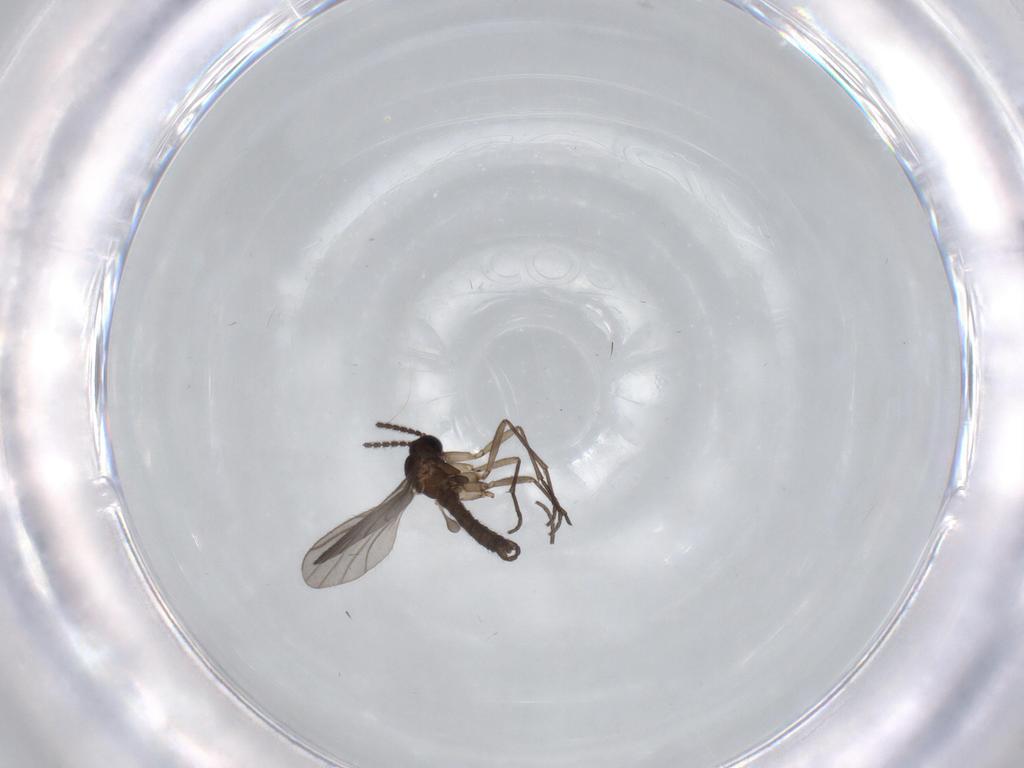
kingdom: Animalia
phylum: Arthropoda
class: Insecta
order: Diptera
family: Sciaridae
